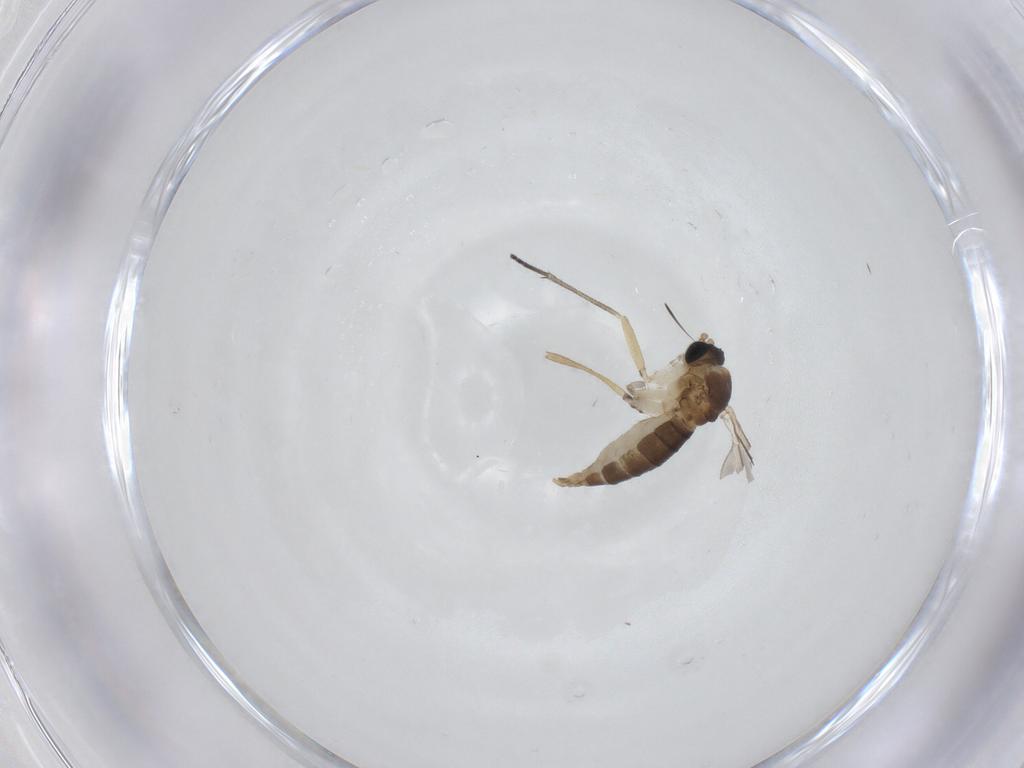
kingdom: Animalia
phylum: Arthropoda
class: Insecta
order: Diptera
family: Sciaridae
